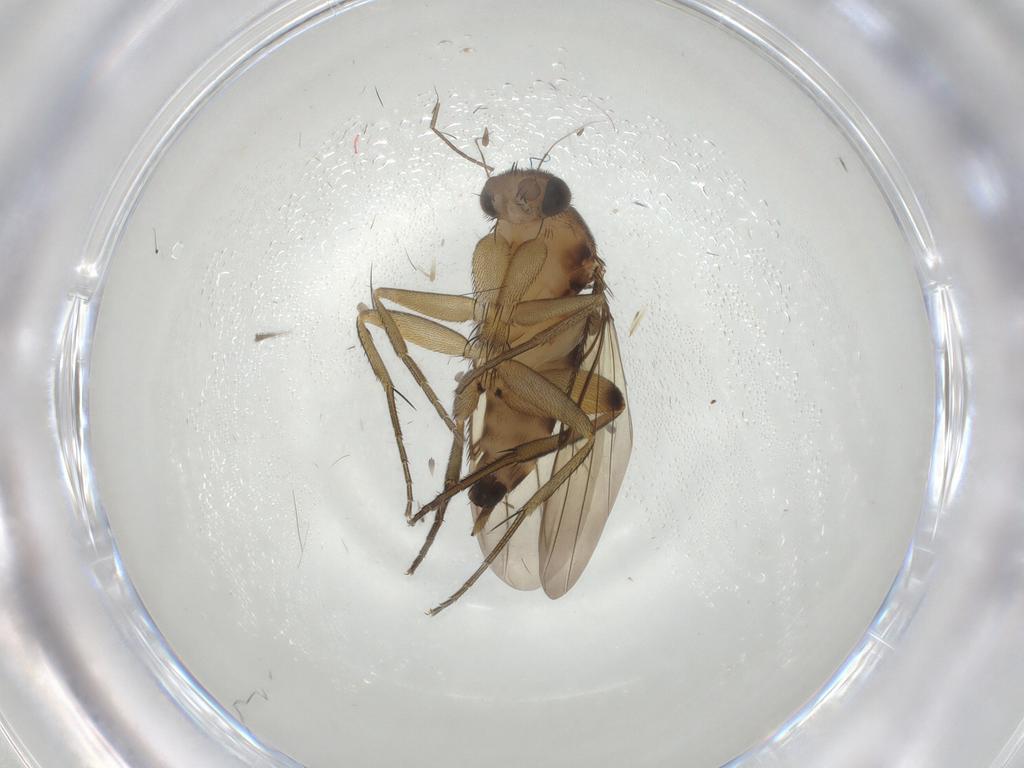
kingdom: Animalia
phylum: Arthropoda
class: Insecta
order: Diptera
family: Phoridae
